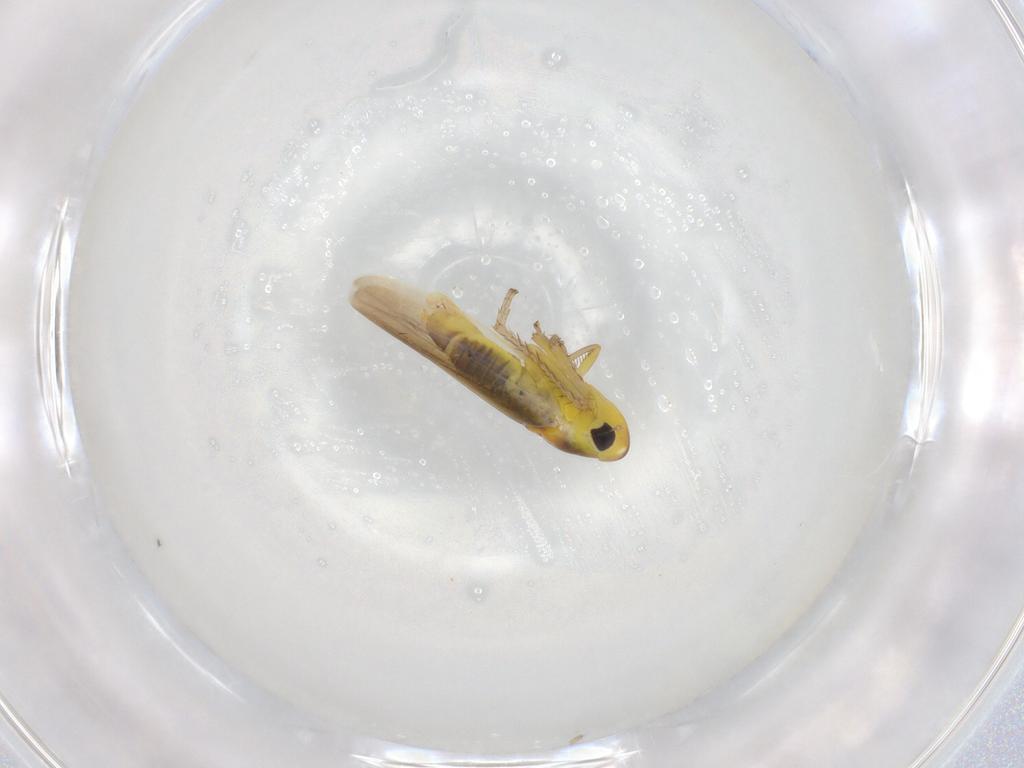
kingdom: Animalia
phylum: Arthropoda
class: Insecta
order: Hemiptera
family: Cicadellidae
